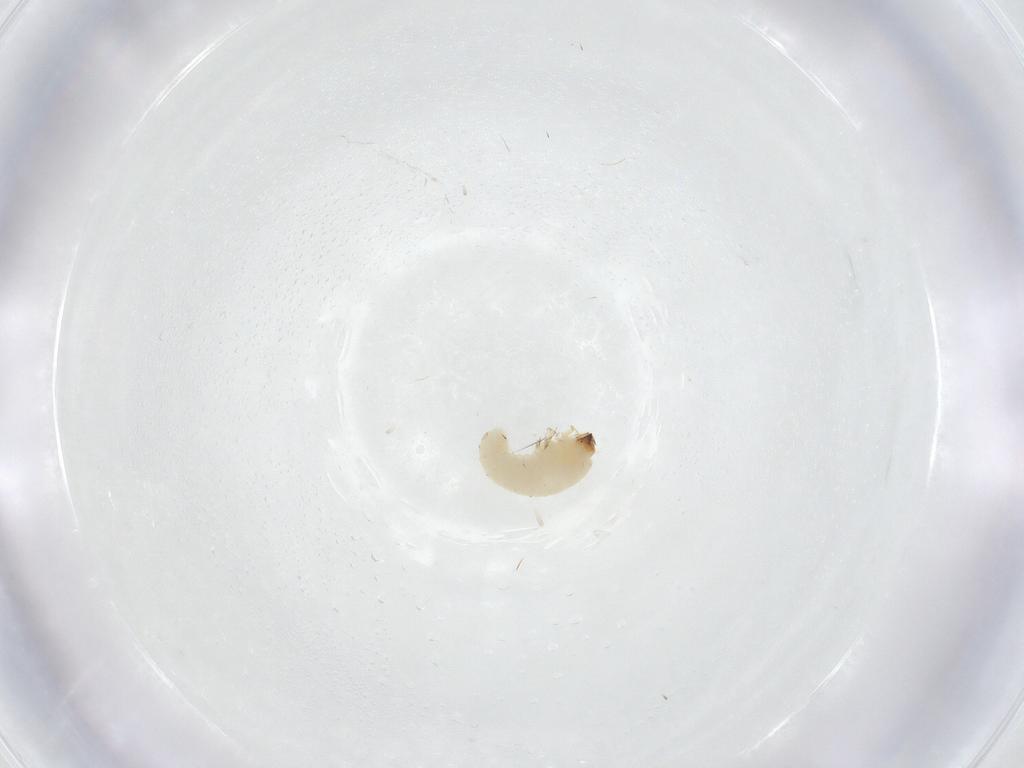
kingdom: Animalia
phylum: Arthropoda
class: Insecta
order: Coleoptera
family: Bostrichidae
